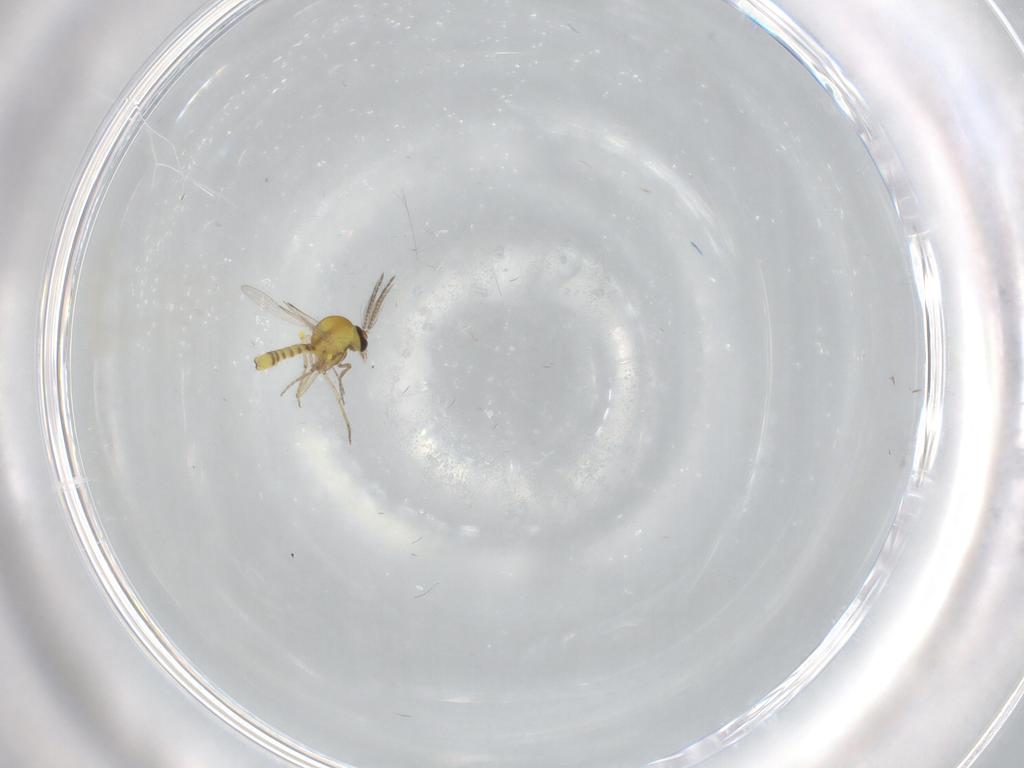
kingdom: Animalia
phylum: Arthropoda
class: Insecta
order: Diptera
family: Ceratopogonidae
